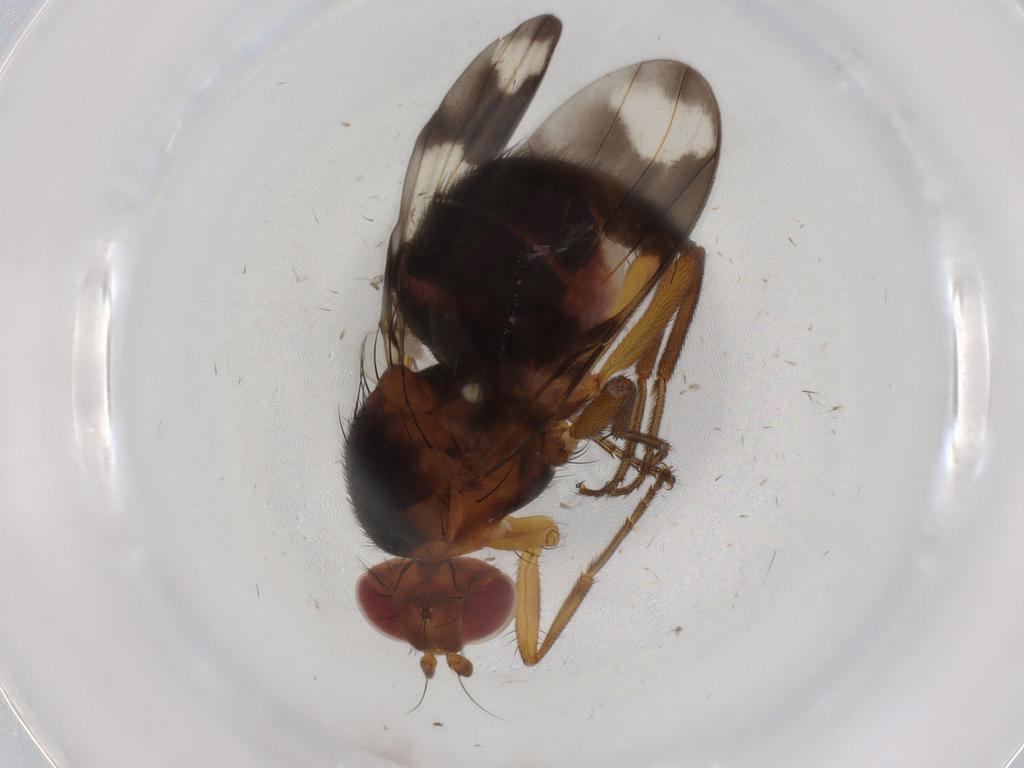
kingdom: Animalia
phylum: Arthropoda
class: Insecta
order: Diptera
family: Richardiidae
